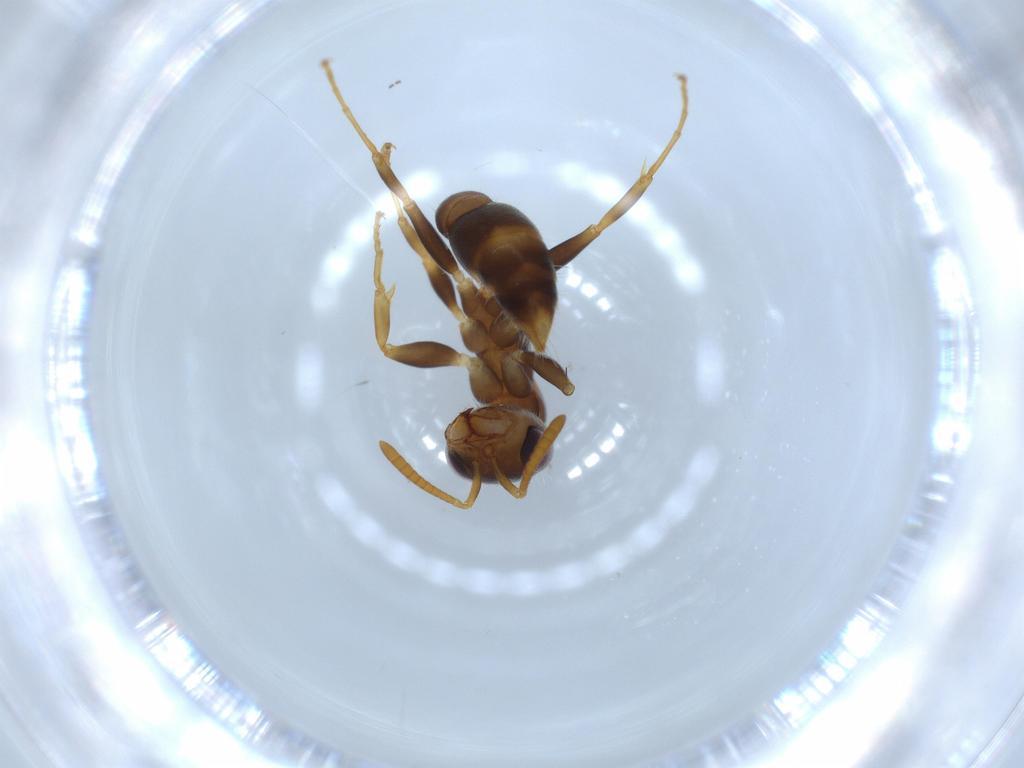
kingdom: Animalia
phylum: Arthropoda
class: Insecta
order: Hymenoptera
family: Formicidae
